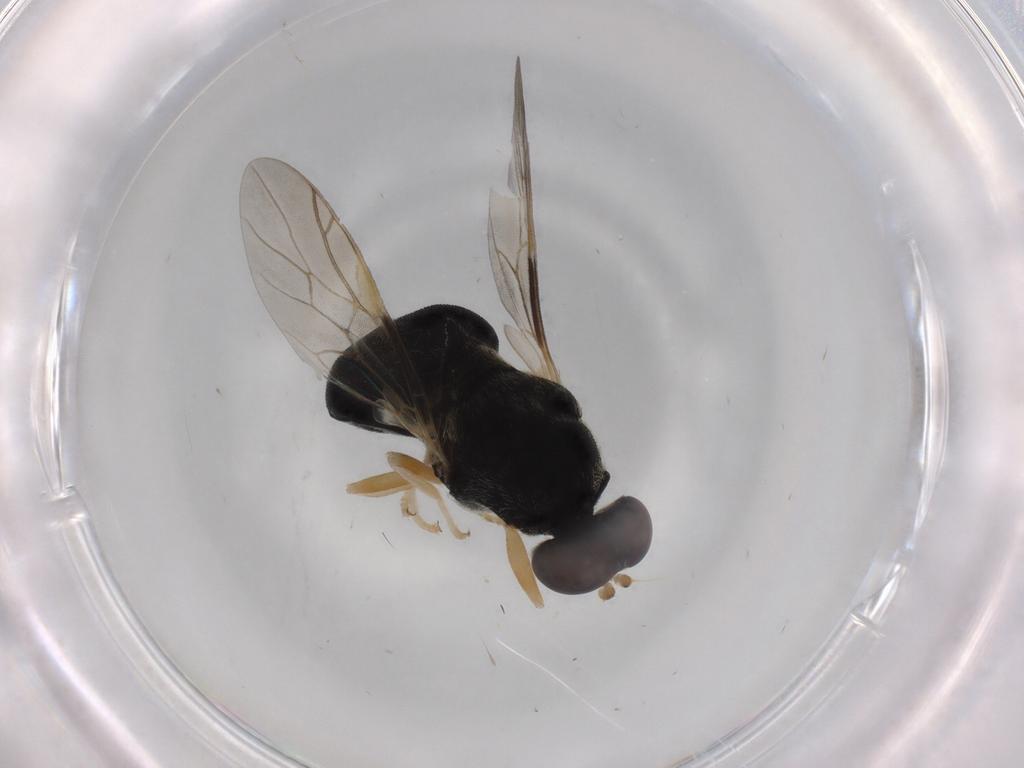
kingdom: Animalia
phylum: Arthropoda
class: Insecta
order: Diptera
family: Stratiomyidae
